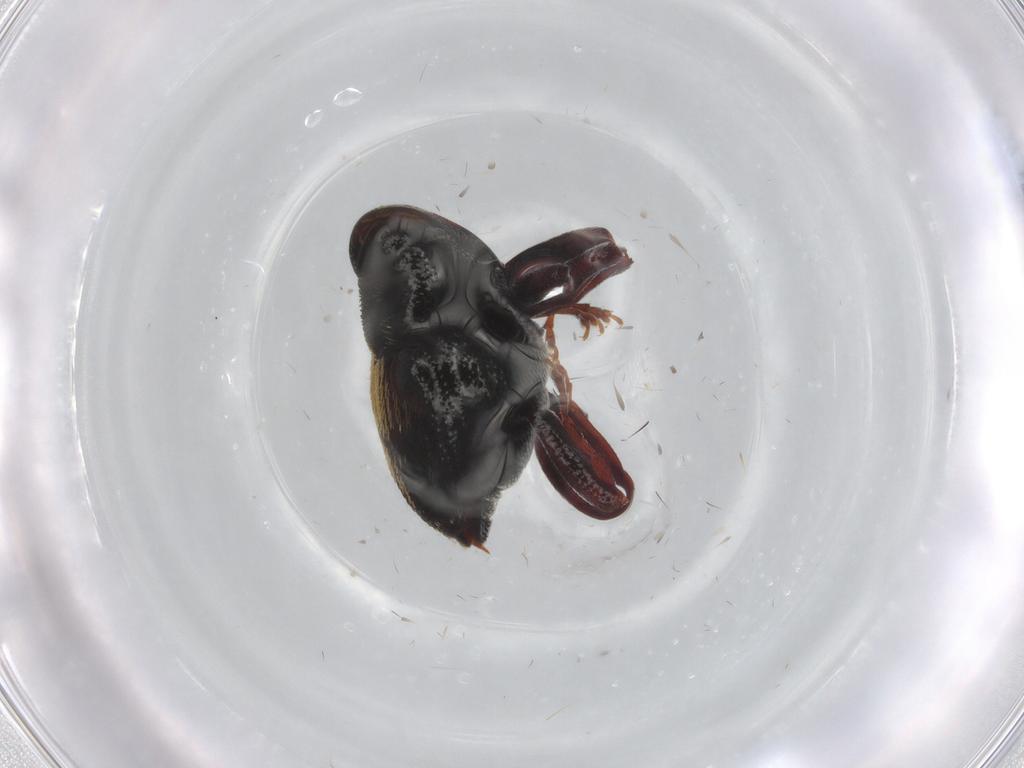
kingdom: Animalia
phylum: Arthropoda
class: Insecta
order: Coleoptera
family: Curculionidae
